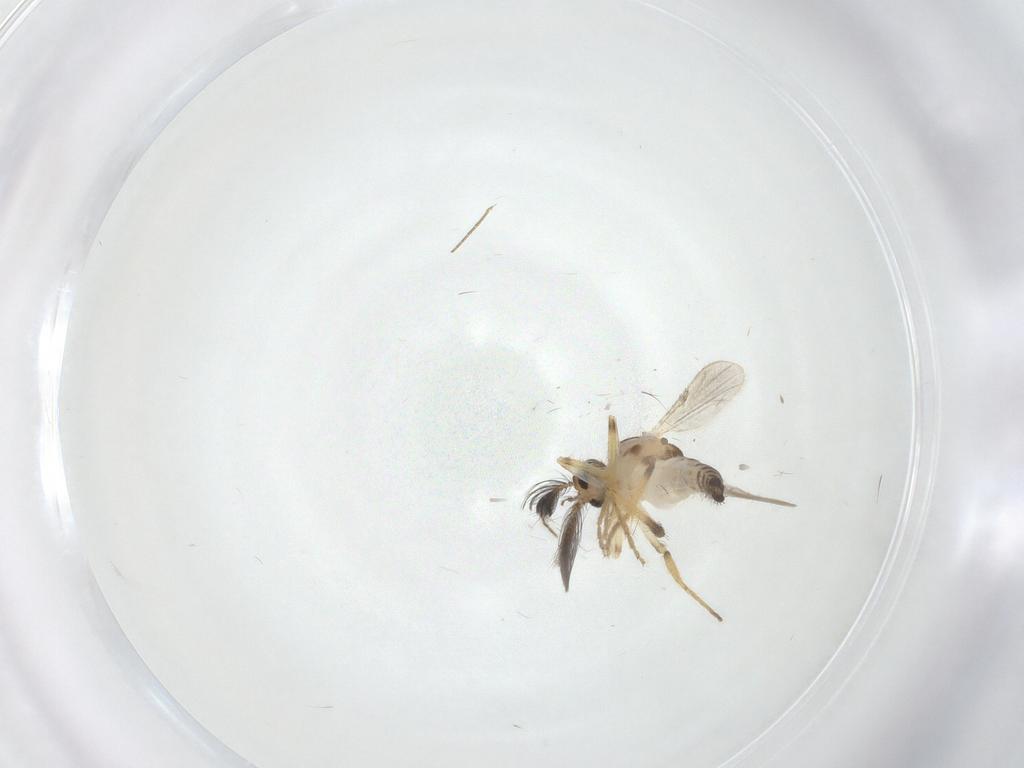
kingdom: Animalia
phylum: Arthropoda
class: Insecta
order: Diptera
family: Ceratopogonidae
